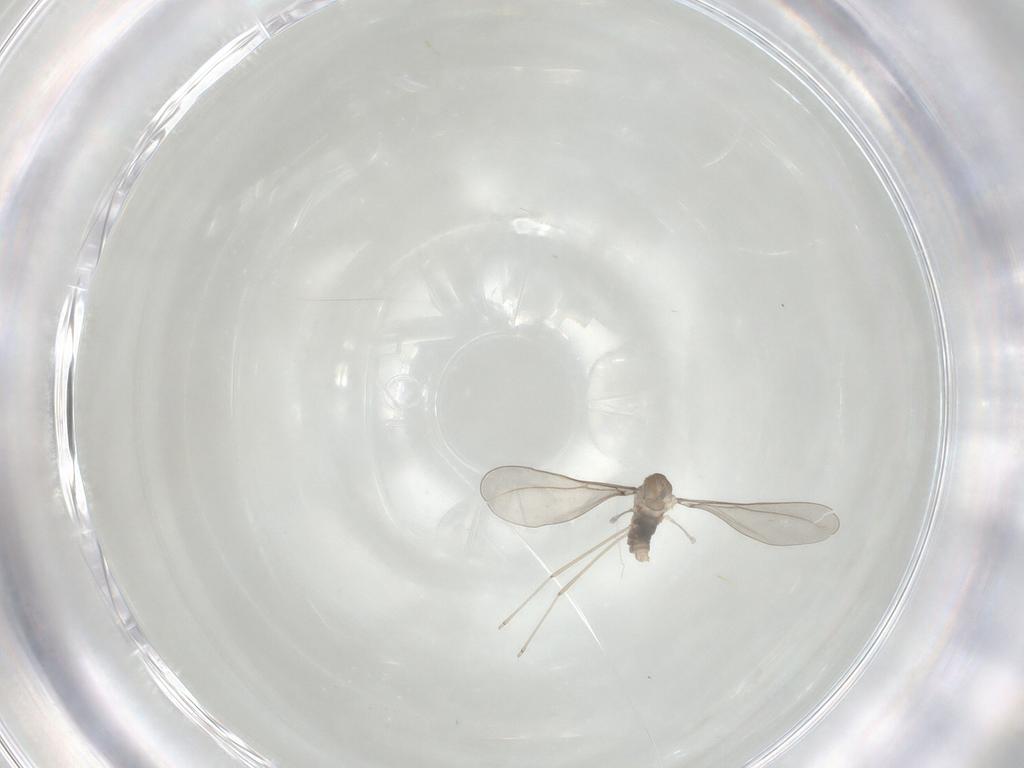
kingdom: Animalia
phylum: Arthropoda
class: Insecta
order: Diptera
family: Cecidomyiidae
